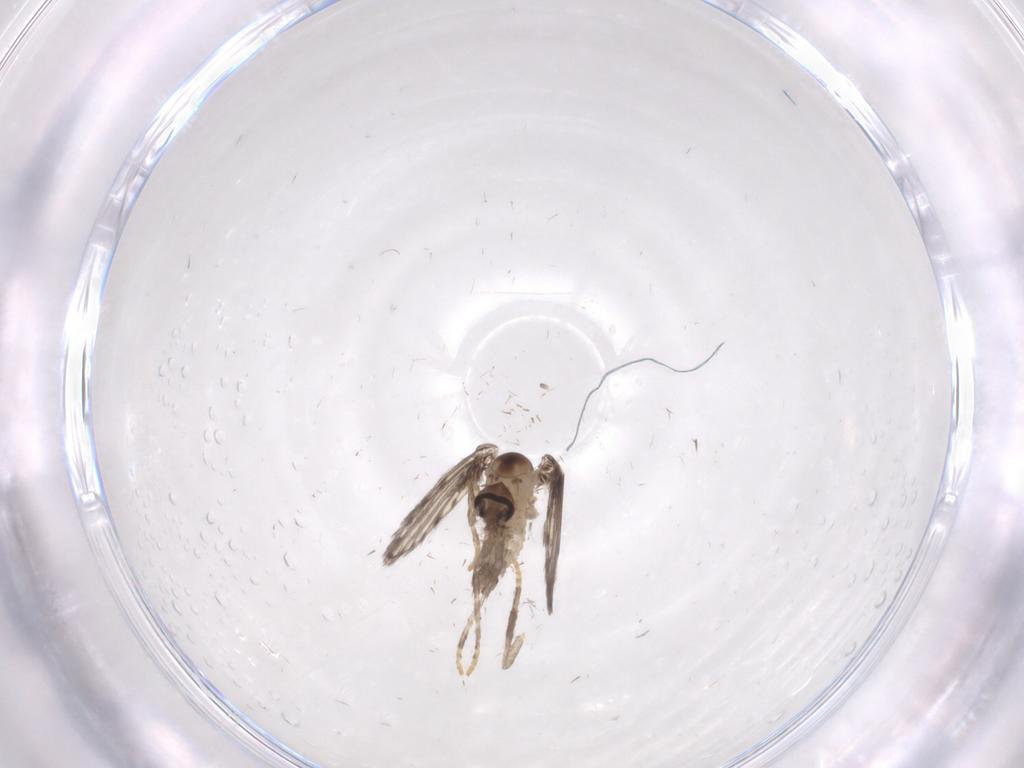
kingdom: Animalia
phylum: Arthropoda
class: Insecta
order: Diptera
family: Psychodidae
